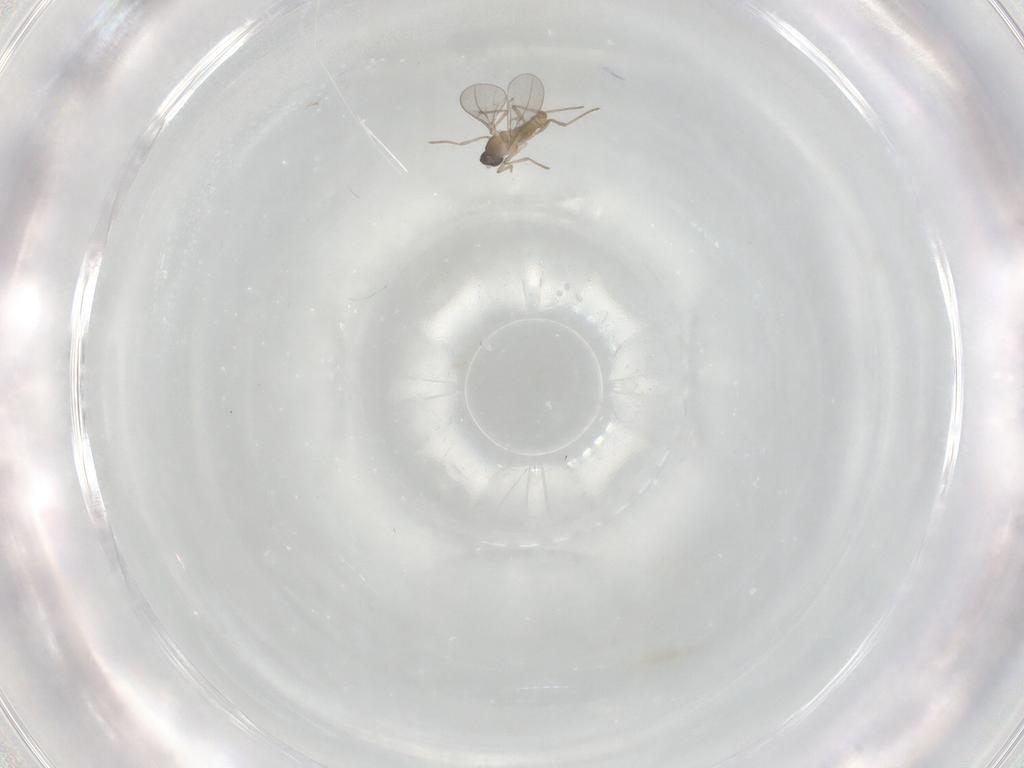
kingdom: Animalia
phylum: Arthropoda
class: Insecta
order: Diptera
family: Cecidomyiidae
